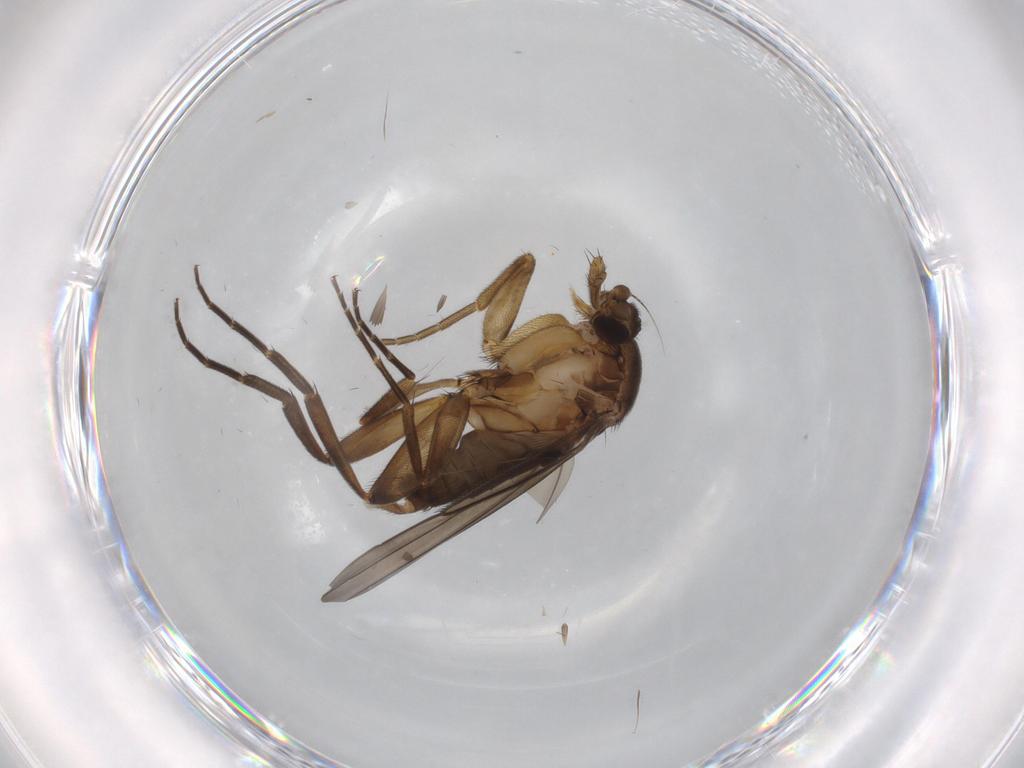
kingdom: Animalia
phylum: Arthropoda
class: Insecta
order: Diptera
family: Phoridae
